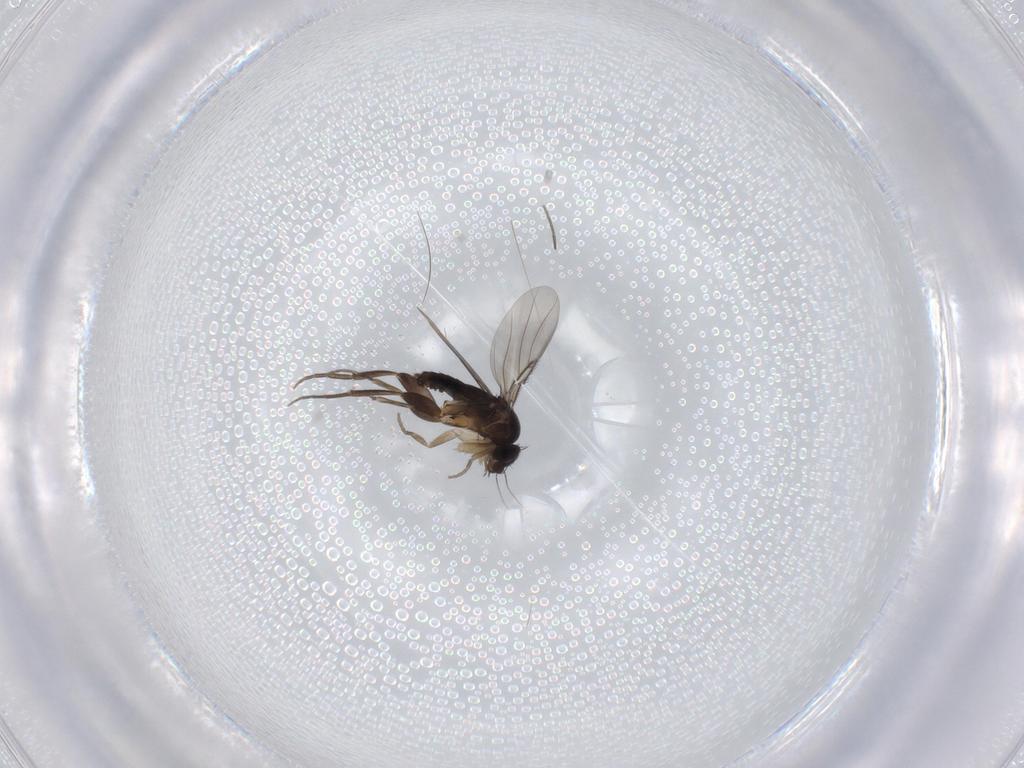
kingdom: Animalia
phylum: Arthropoda
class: Insecta
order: Diptera
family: Phoridae
